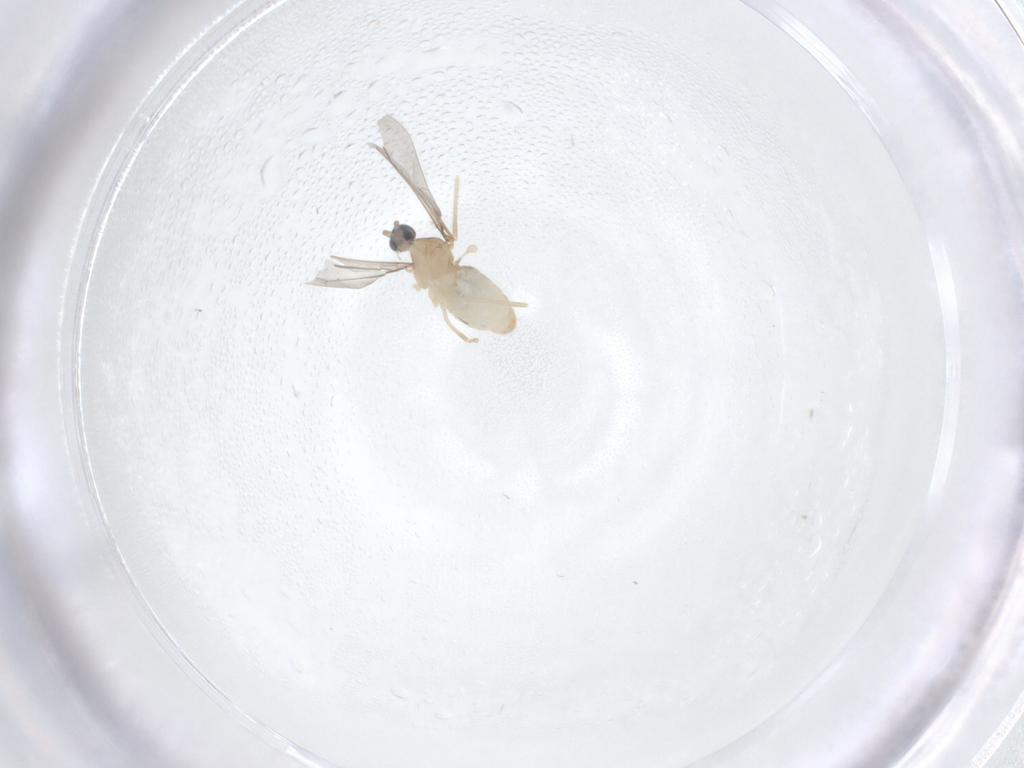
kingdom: Animalia
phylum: Arthropoda
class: Insecta
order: Diptera
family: Cecidomyiidae
